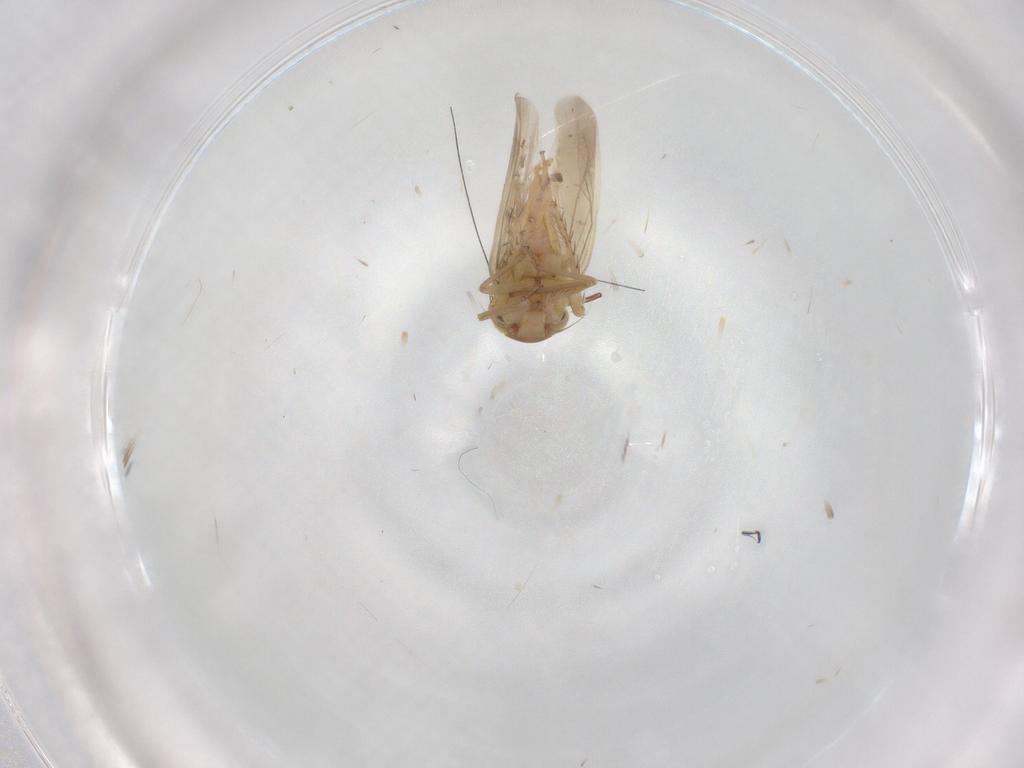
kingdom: Animalia
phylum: Arthropoda
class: Insecta
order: Hemiptera
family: Cicadellidae
